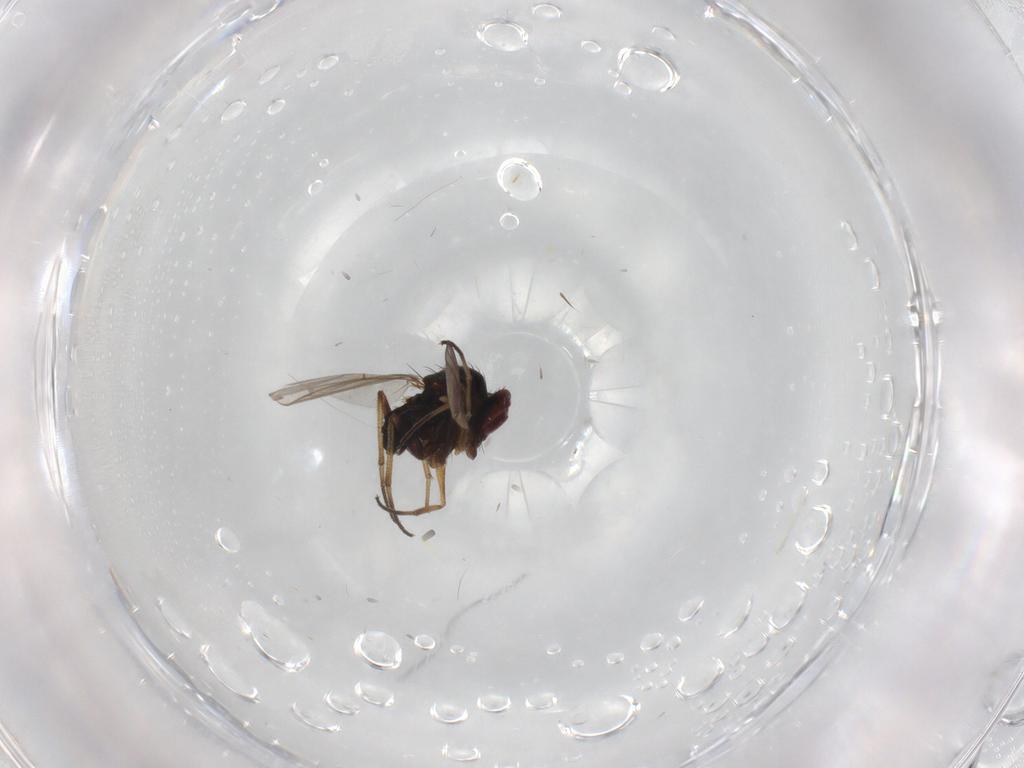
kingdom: Animalia
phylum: Arthropoda
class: Insecta
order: Diptera
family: Dolichopodidae
